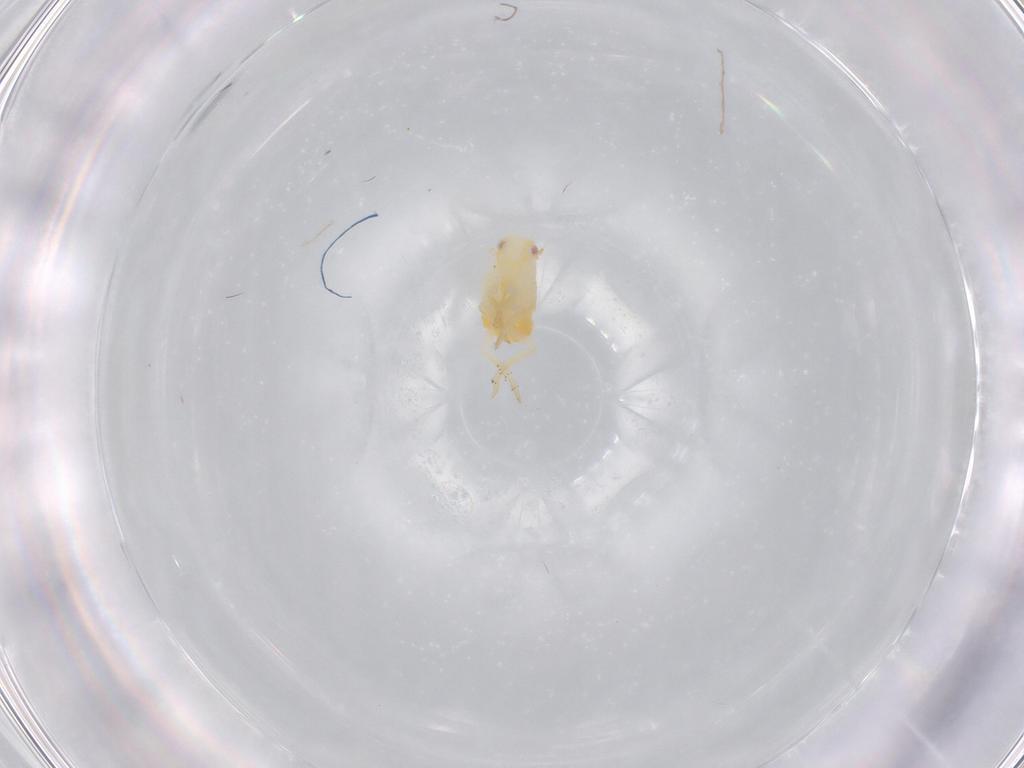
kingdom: Animalia
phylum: Arthropoda
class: Insecta
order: Hemiptera
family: Flatidae
